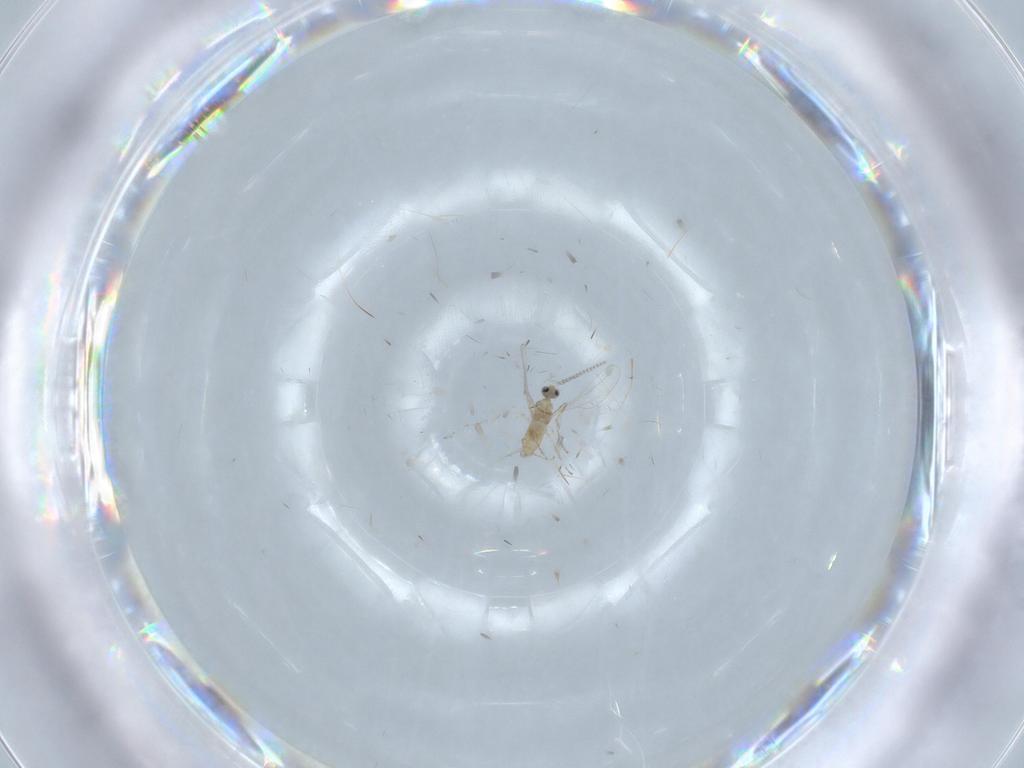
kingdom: Animalia
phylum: Arthropoda
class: Insecta
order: Diptera
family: Cecidomyiidae
